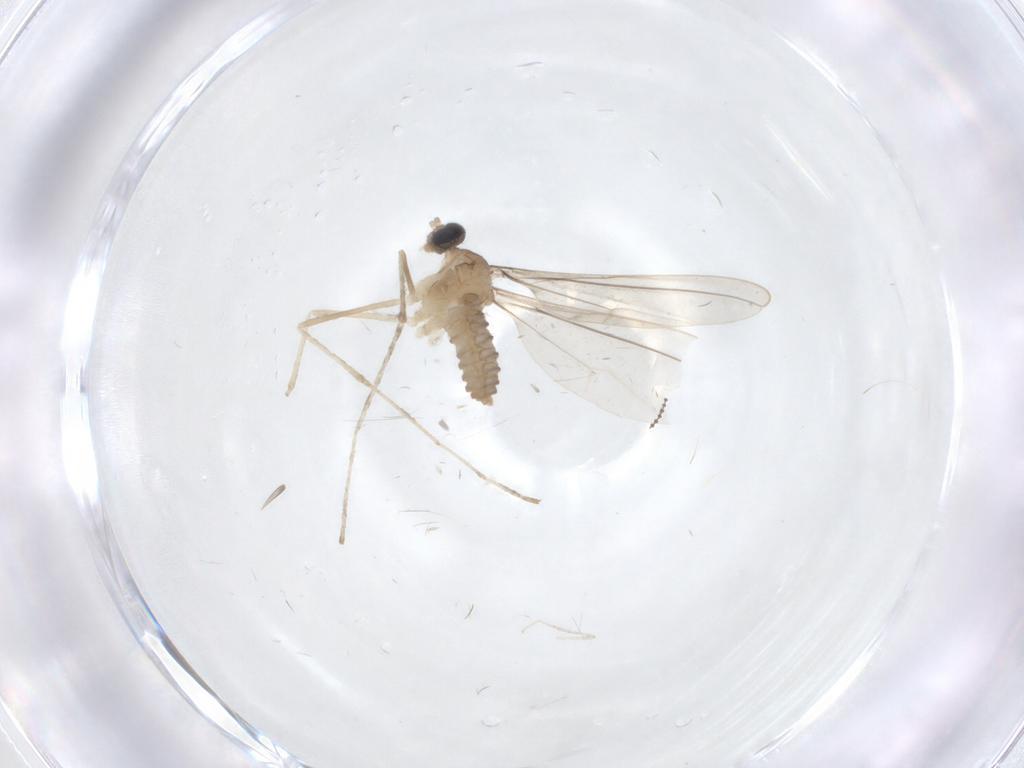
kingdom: Animalia
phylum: Arthropoda
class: Insecta
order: Diptera
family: Cecidomyiidae
